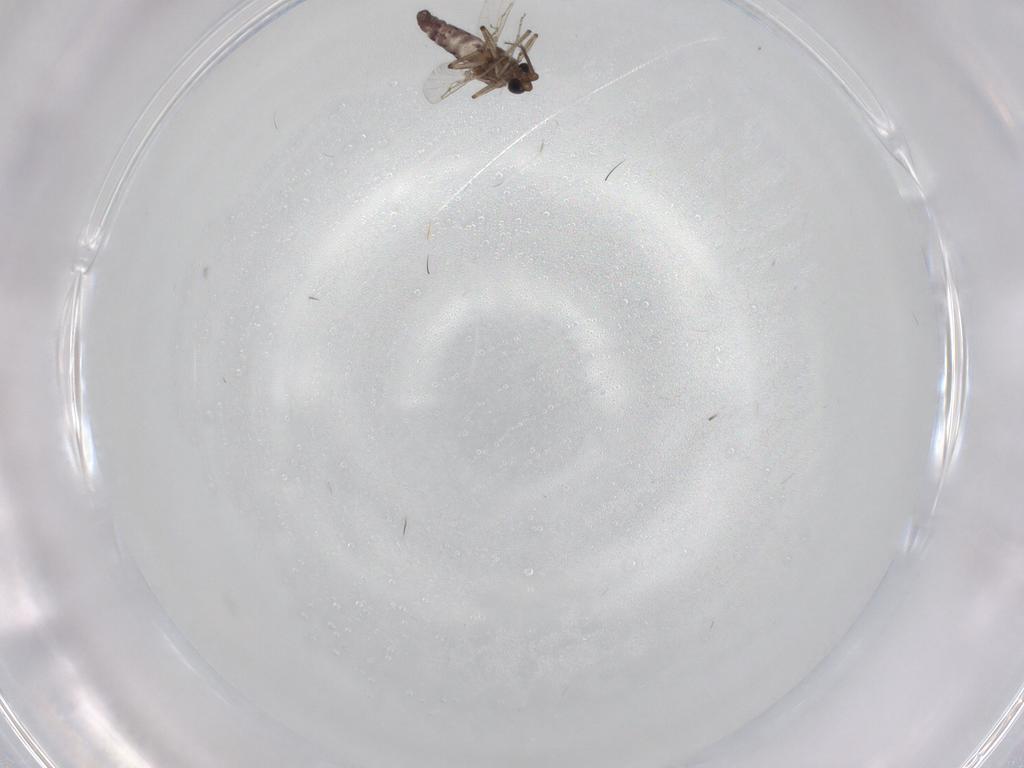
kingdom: Animalia
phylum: Arthropoda
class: Insecta
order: Diptera
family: Ceratopogonidae
